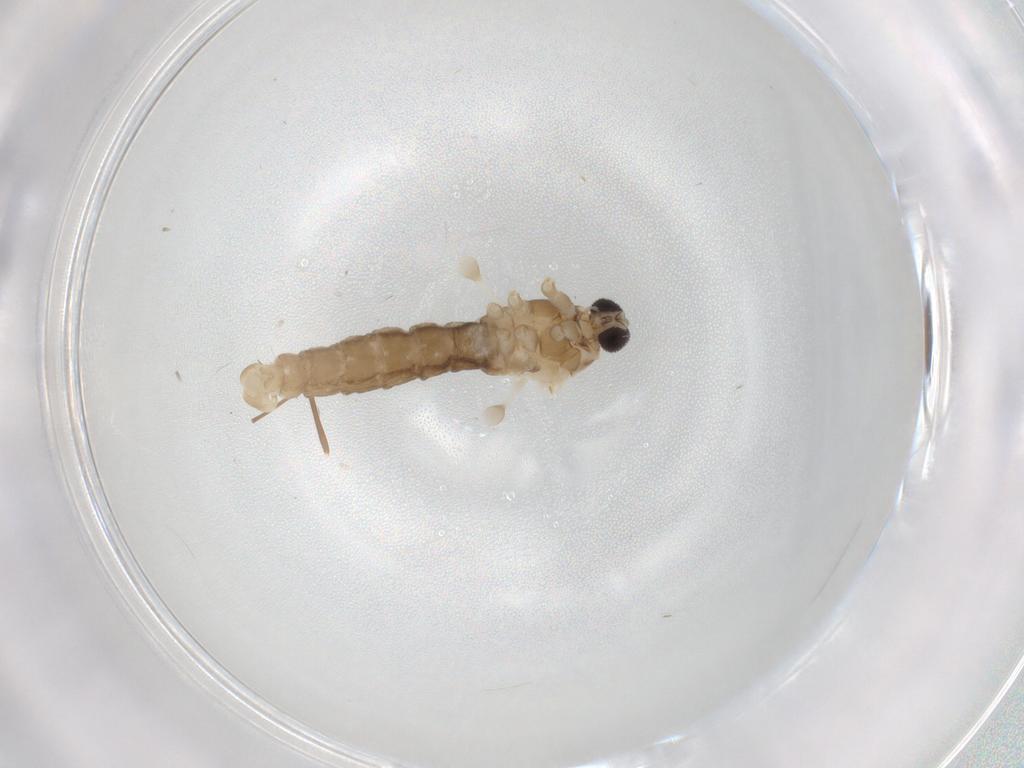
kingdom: Animalia
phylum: Arthropoda
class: Insecta
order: Diptera
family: Cecidomyiidae
